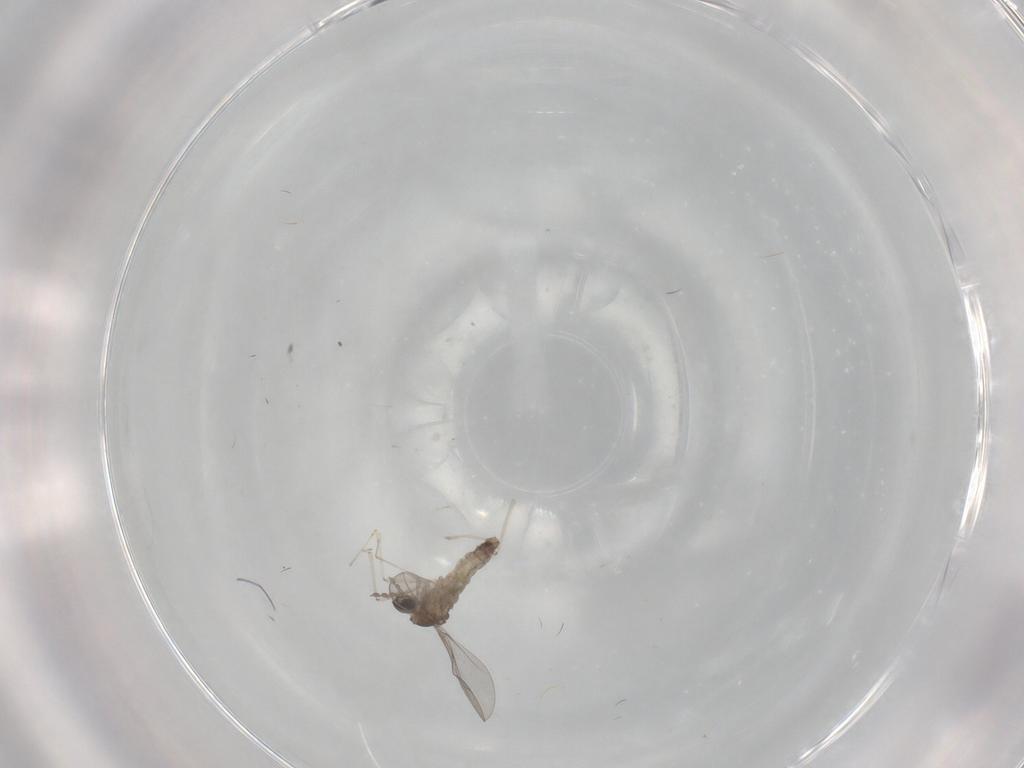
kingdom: Animalia
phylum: Arthropoda
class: Insecta
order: Diptera
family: Cecidomyiidae
